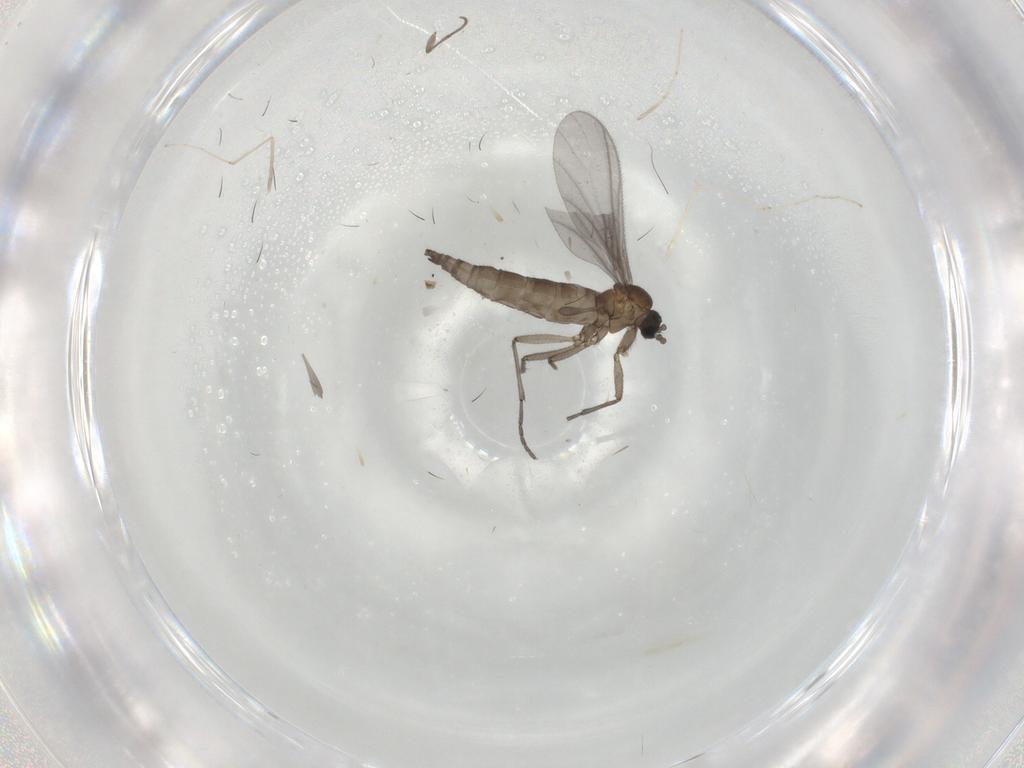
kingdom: Animalia
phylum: Arthropoda
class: Insecta
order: Diptera
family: Sciaridae
